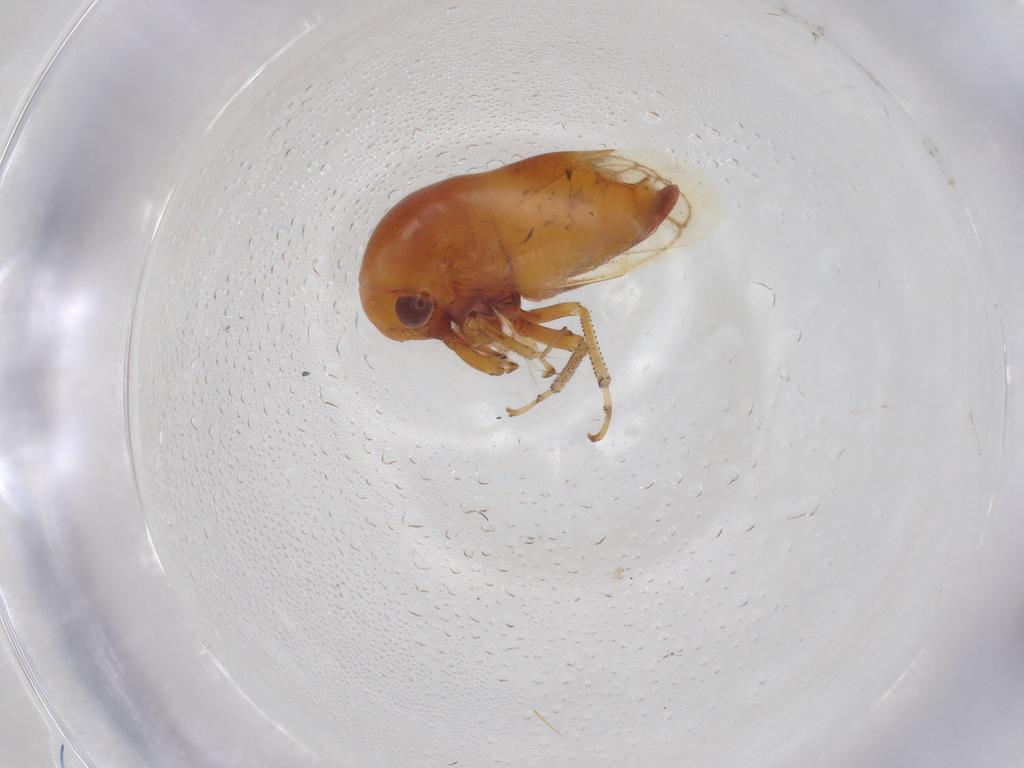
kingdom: Animalia
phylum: Arthropoda
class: Insecta
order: Hemiptera
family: Membracidae
